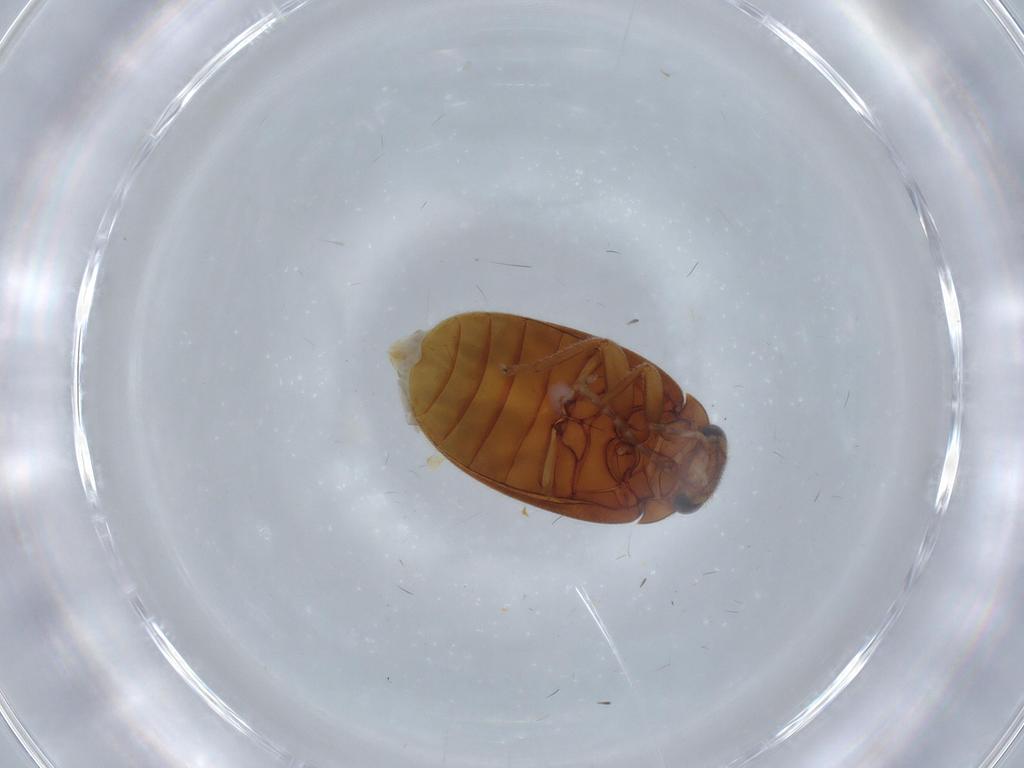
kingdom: Animalia
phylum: Arthropoda
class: Insecta
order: Coleoptera
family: Scirtidae
